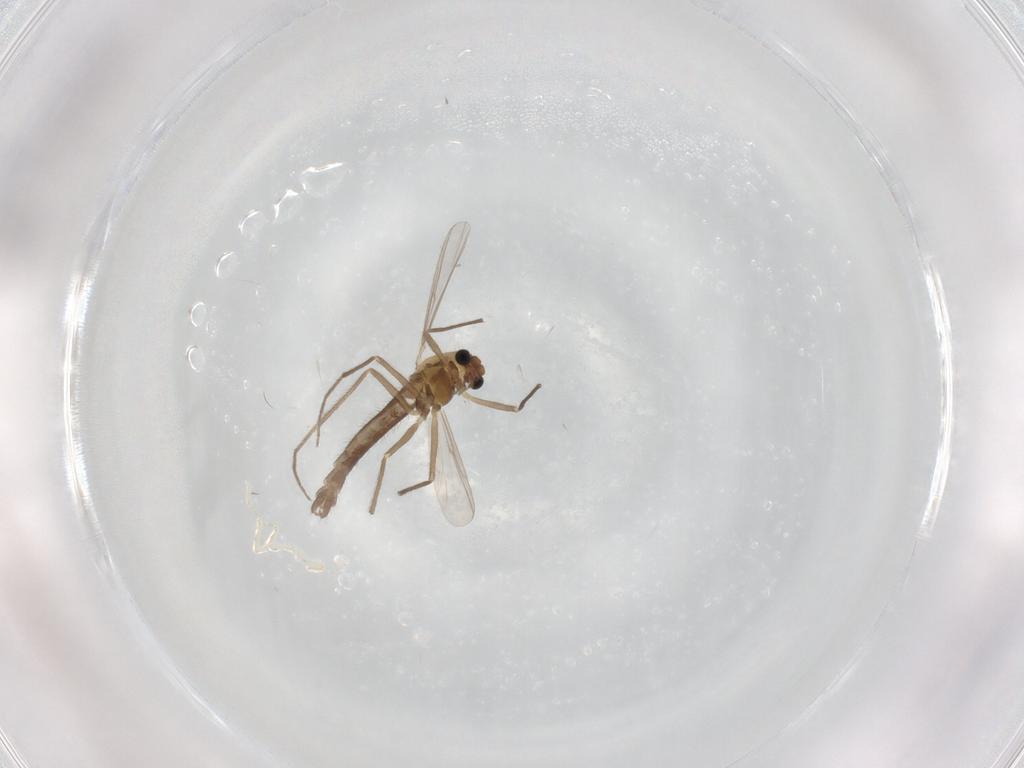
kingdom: Animalia
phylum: Arthropoda
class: Insecta
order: Diptera
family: Chironomidae
